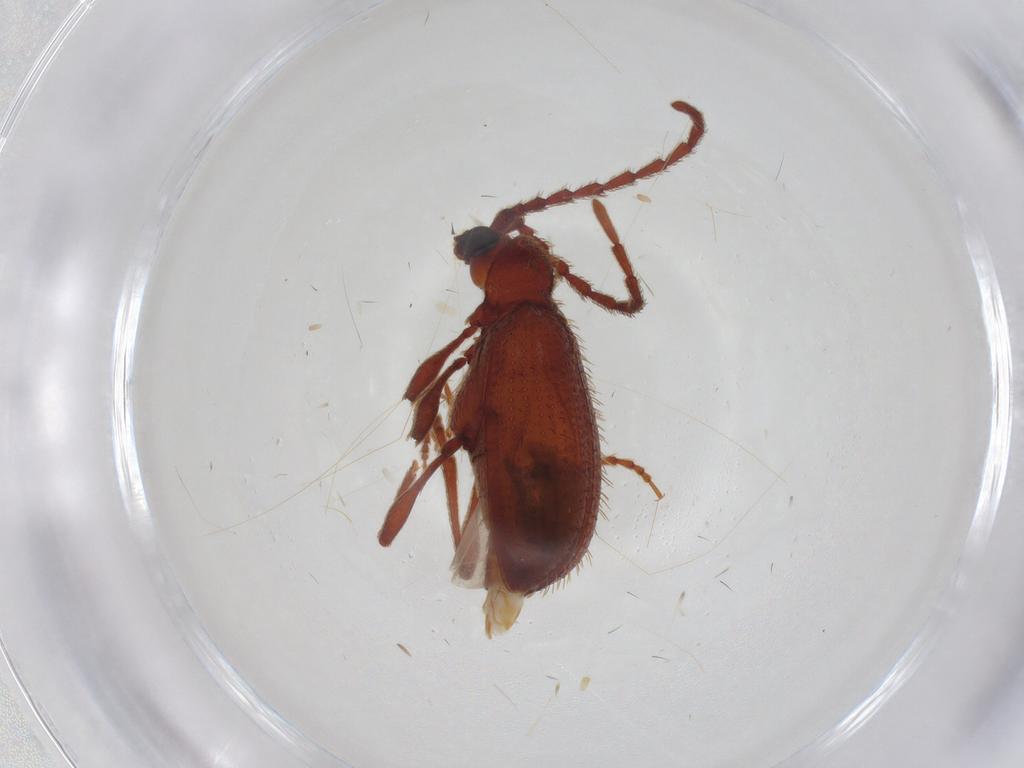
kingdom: Animalia
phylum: Arthropoda
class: Insecta
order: Coleoptera
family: Ptinidae
